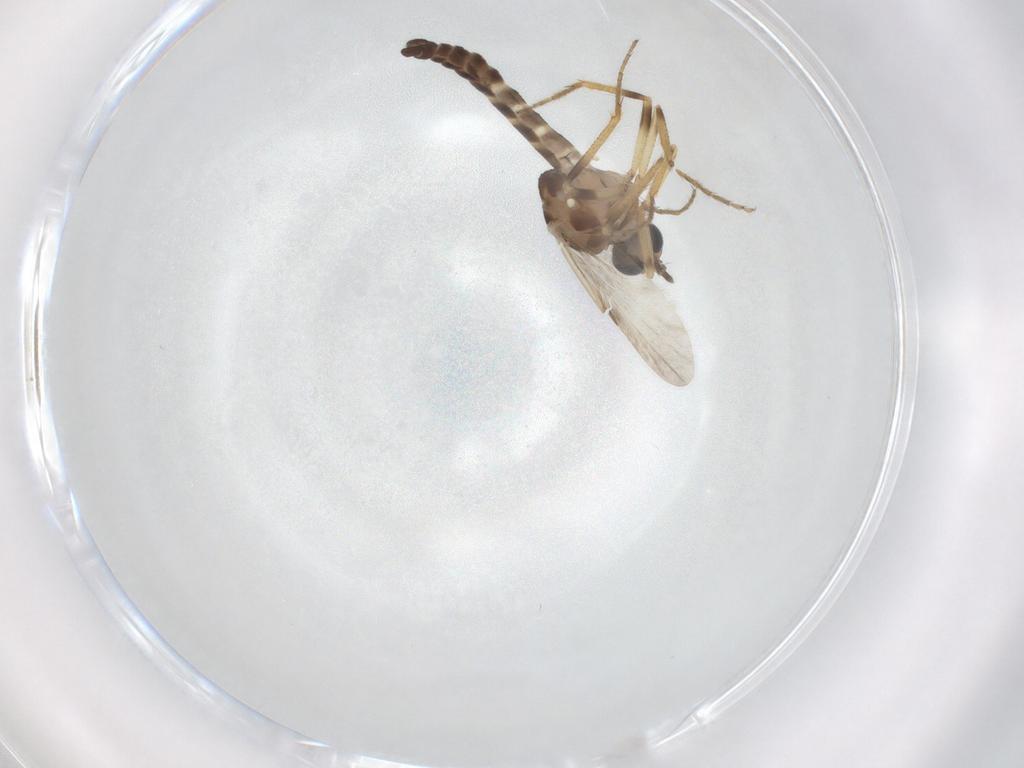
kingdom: Animalia
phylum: Arthropoda
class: Insecta
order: Diptera
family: Ceratopogonidae
